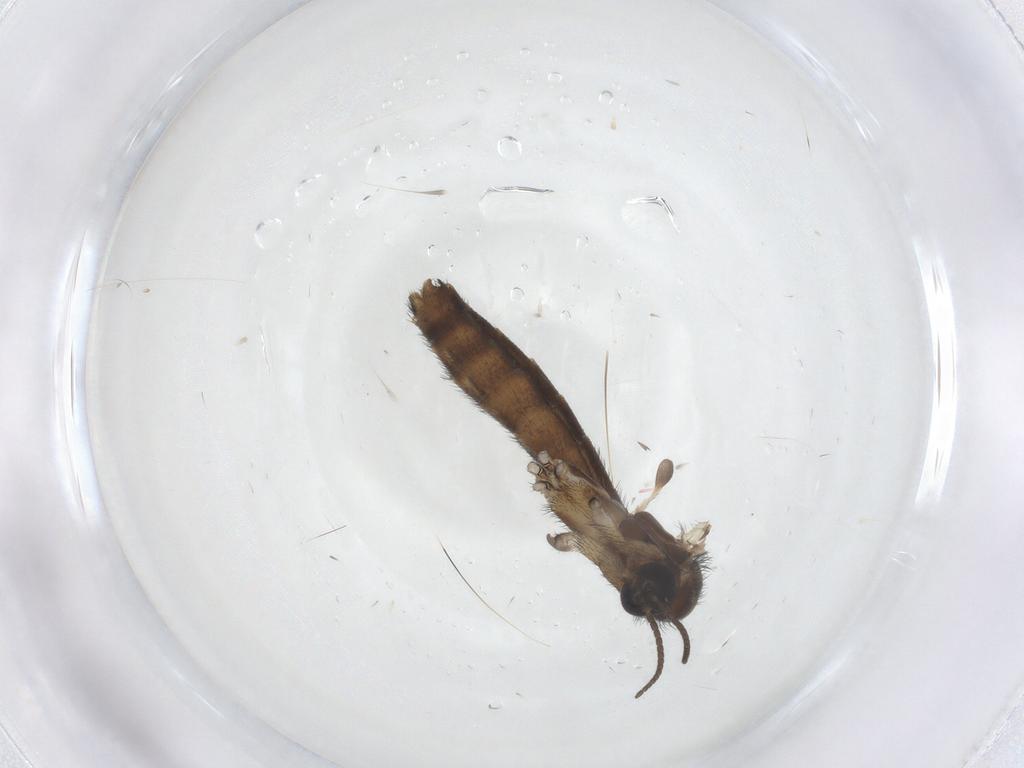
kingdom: Animalia
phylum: Arthropoda
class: Insecta
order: Diptera
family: Keroplatidae
